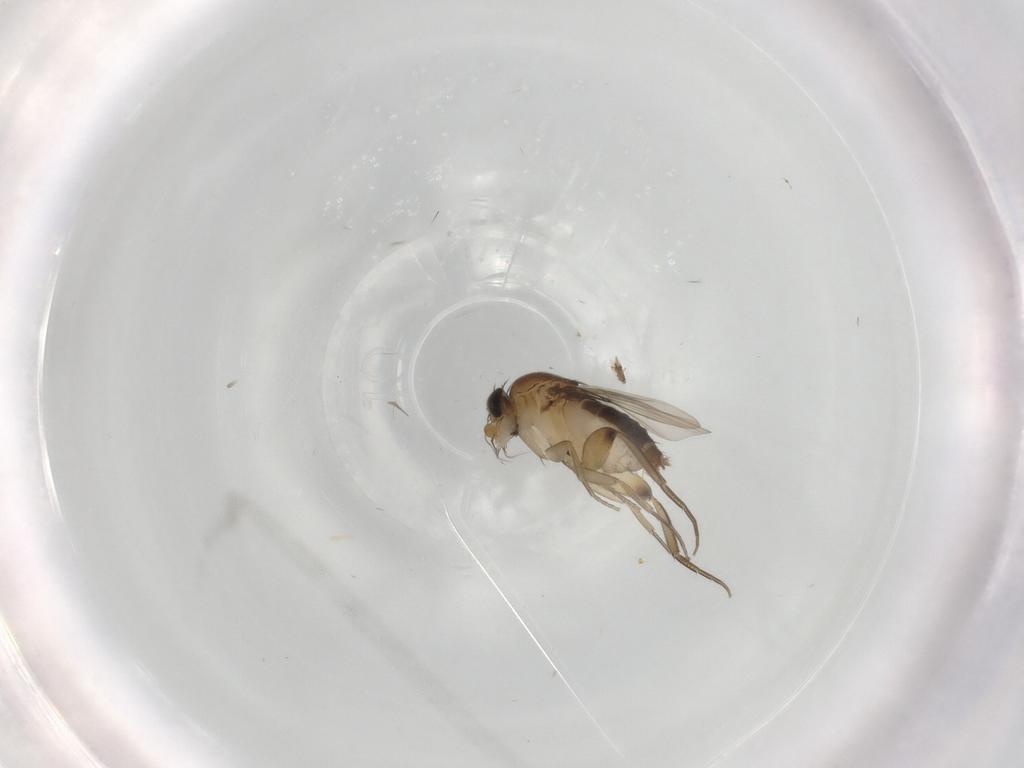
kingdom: Animalia
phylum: Arthropoda
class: Insecta
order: Diptera
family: Phoridae
